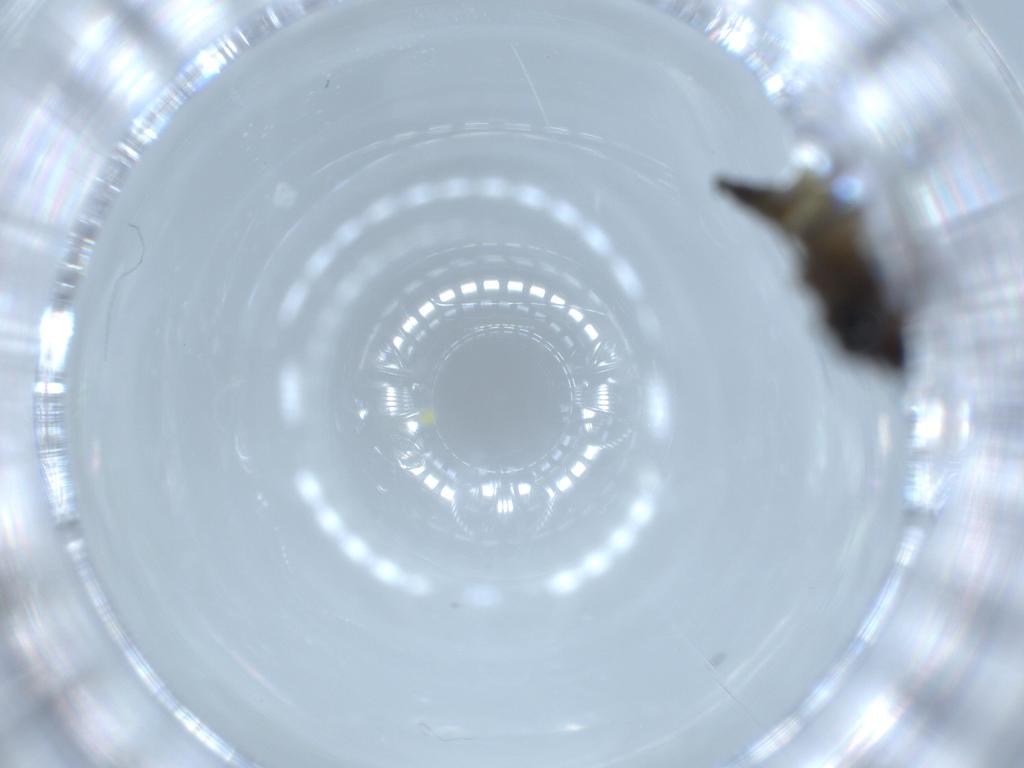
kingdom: Animalia
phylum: Arthropoda
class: Insecta
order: Diptera
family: Sciaridae
